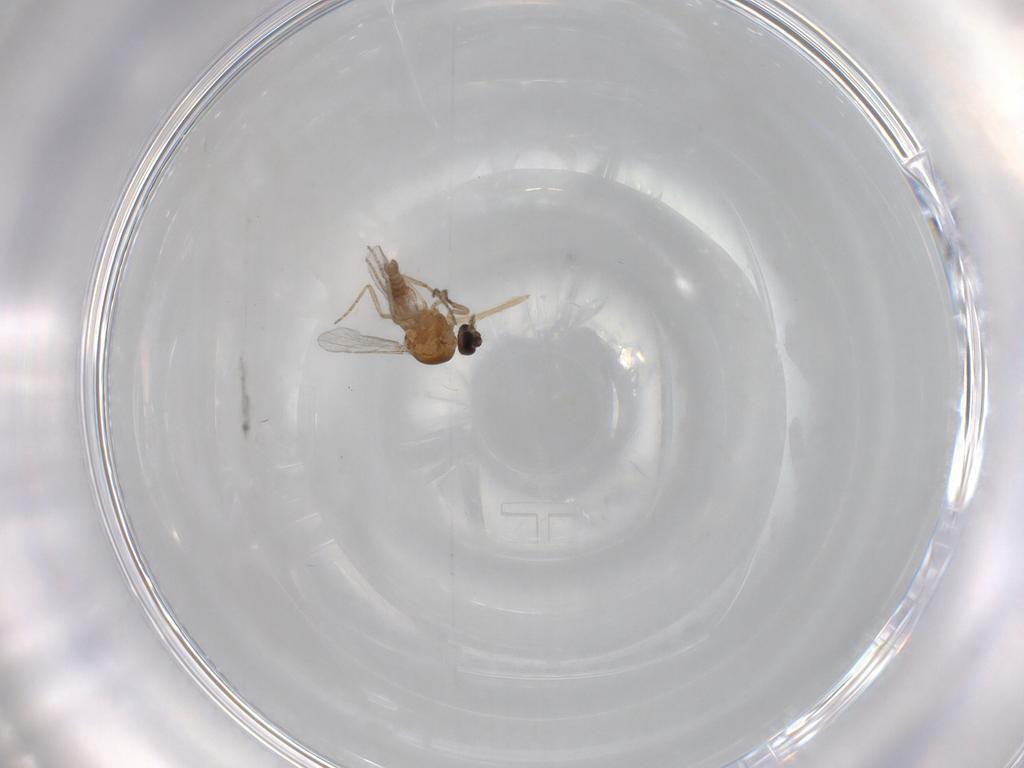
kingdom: Animalia
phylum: Arthropoda
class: Insecta
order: Diptera
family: Ceratopogonidae
